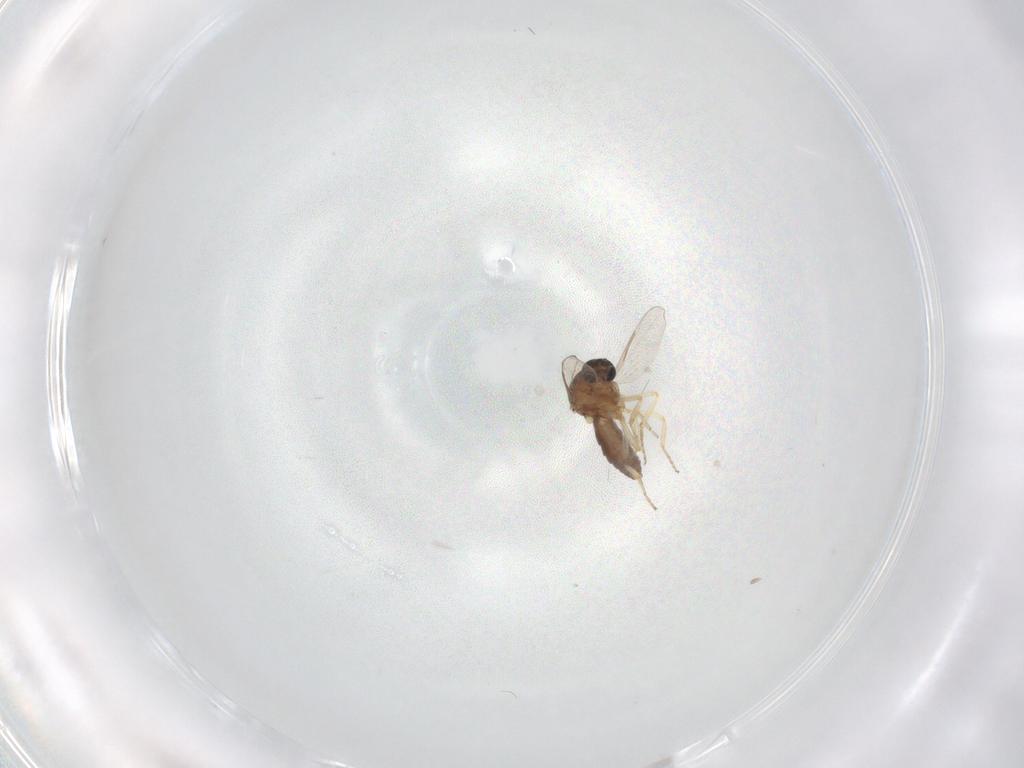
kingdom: Animalia
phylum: Arthropoda
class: Insecta
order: Diptera
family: Ceratopogonidae
